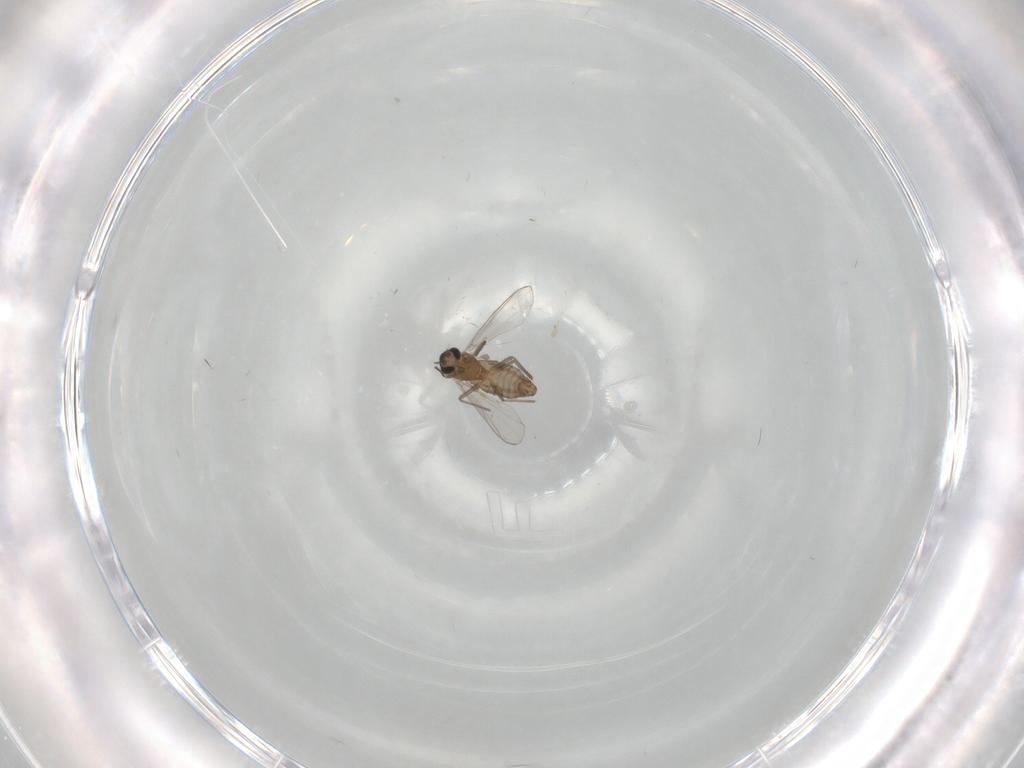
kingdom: Animalia
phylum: Arthropoda
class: Insecta
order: Diptera
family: Chironomidae
